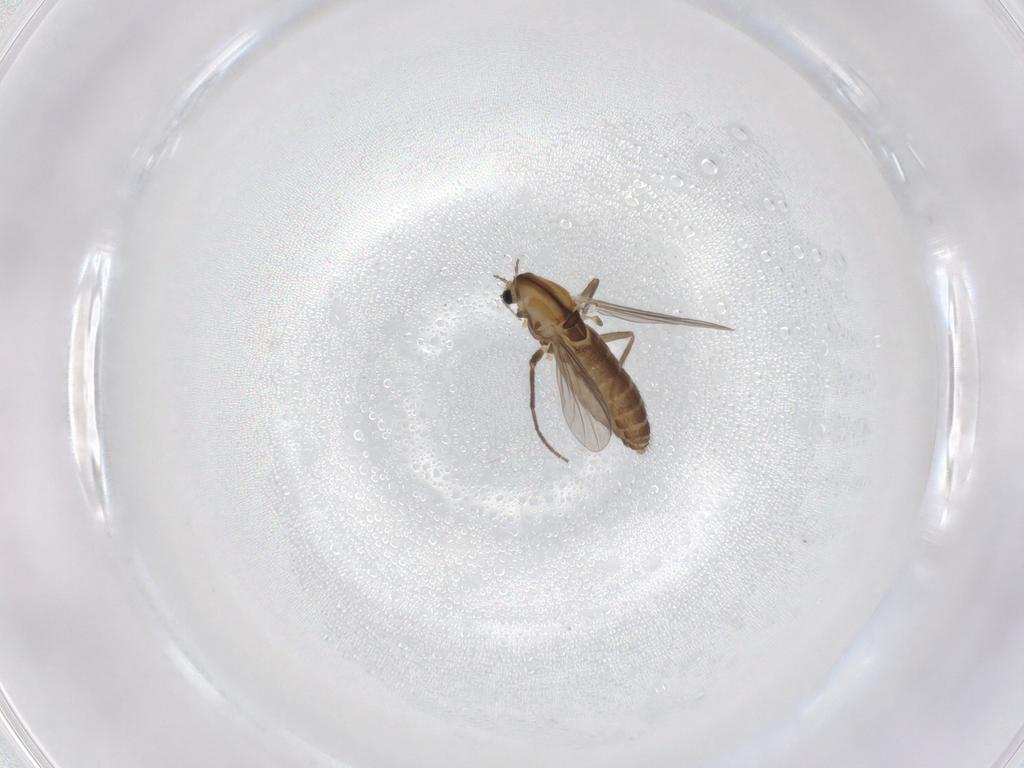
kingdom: Animalia
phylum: Arthropoda
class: Insecta
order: Diptera
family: Chironomidae
